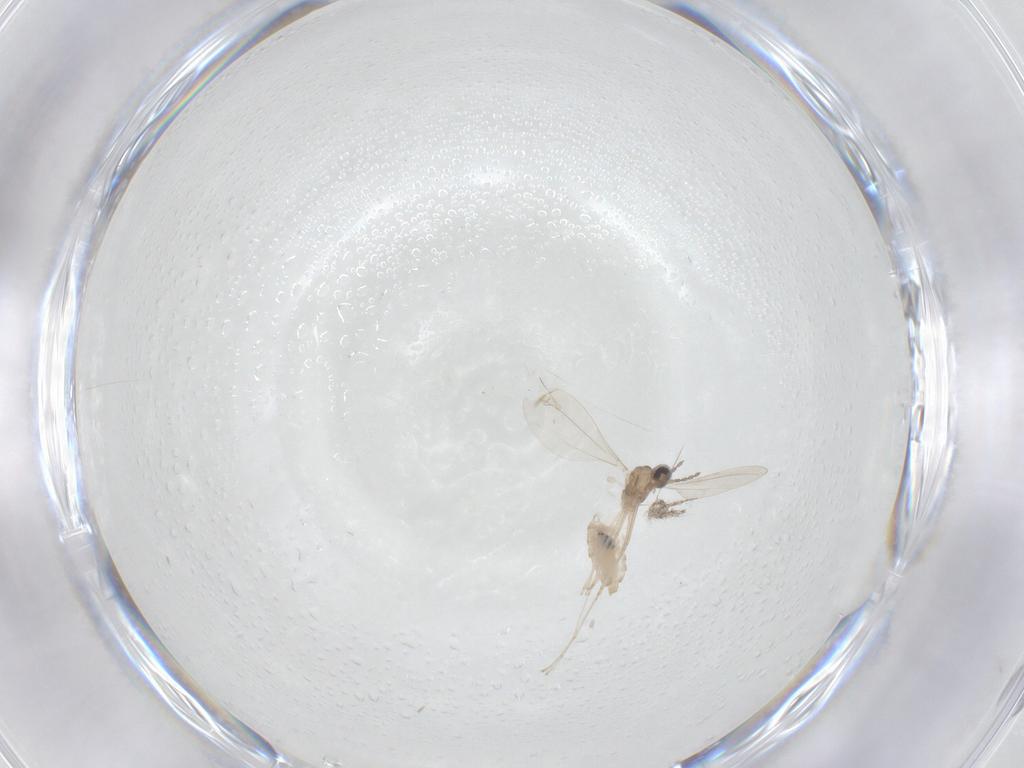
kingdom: Animalia
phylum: Arthropoda
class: Insecta
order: Diptera
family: Cecidomyiidae
